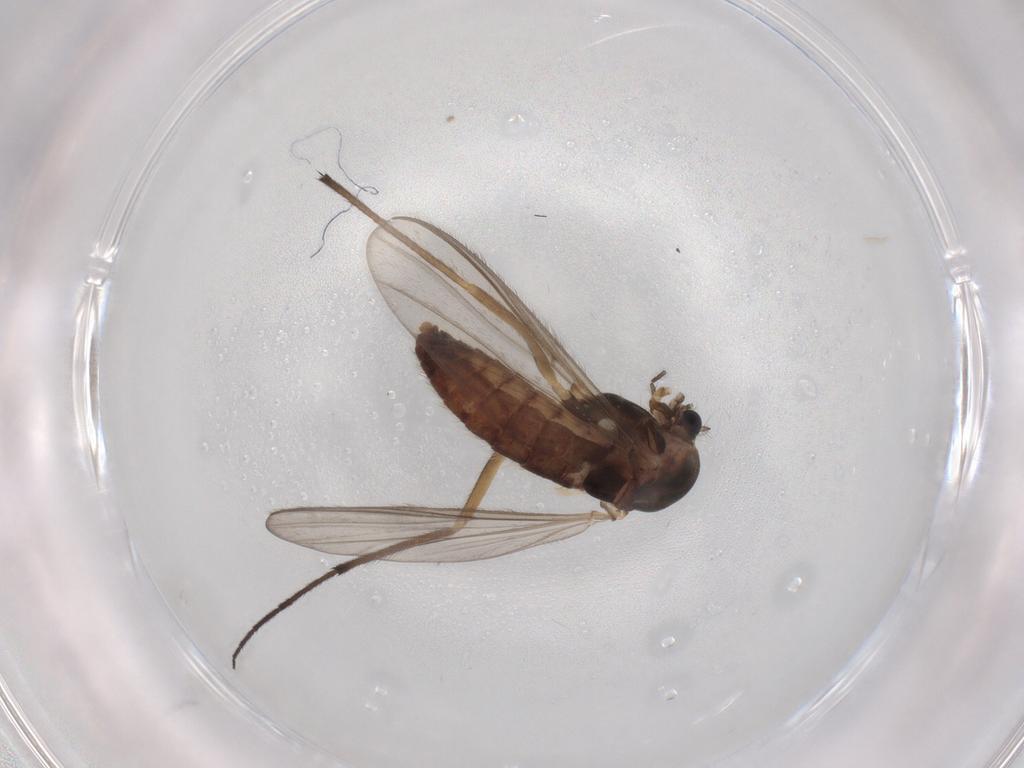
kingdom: Animalia
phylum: Arthropoda
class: Insecta
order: Diptera
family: Chironomidae
